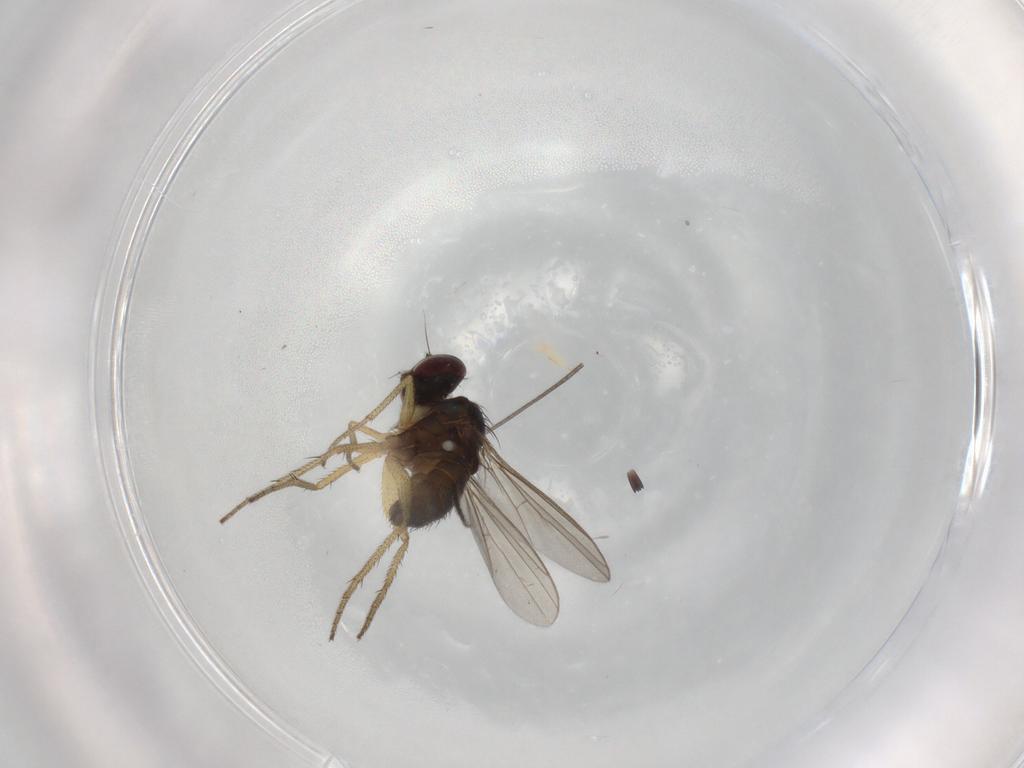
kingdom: Animalia
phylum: Arthropoda
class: Insecta
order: Diptera
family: Sciaridae
